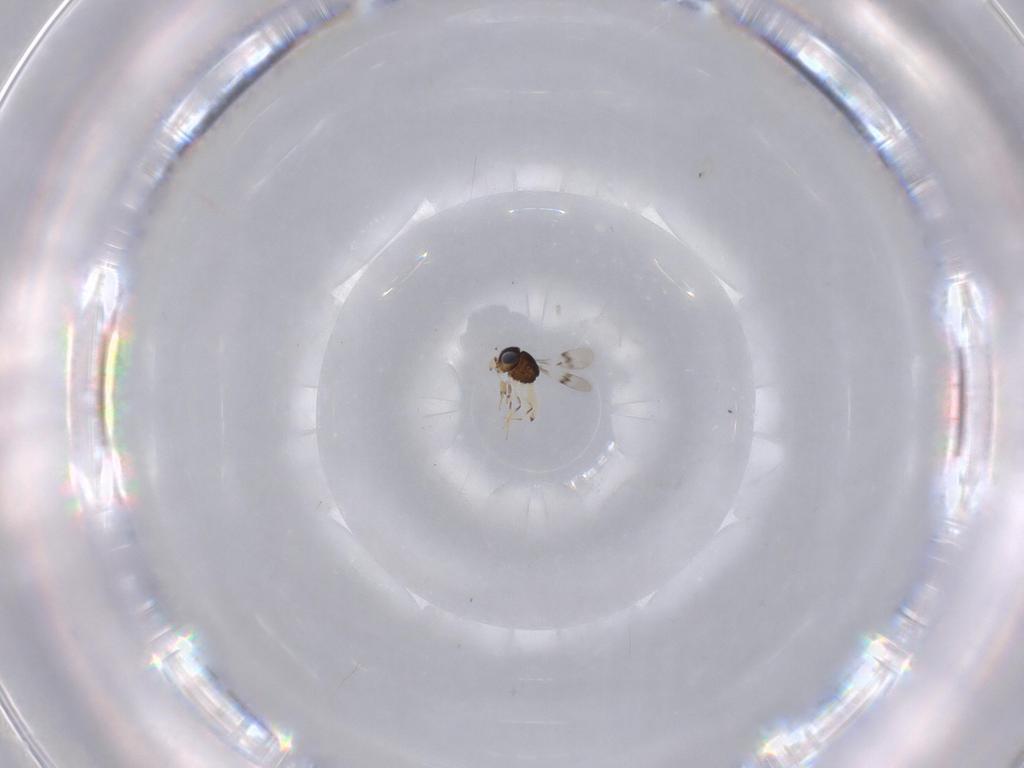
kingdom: Animalia
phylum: Arthropoda
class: Insecta
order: Hymenoptera
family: Scelionidae
